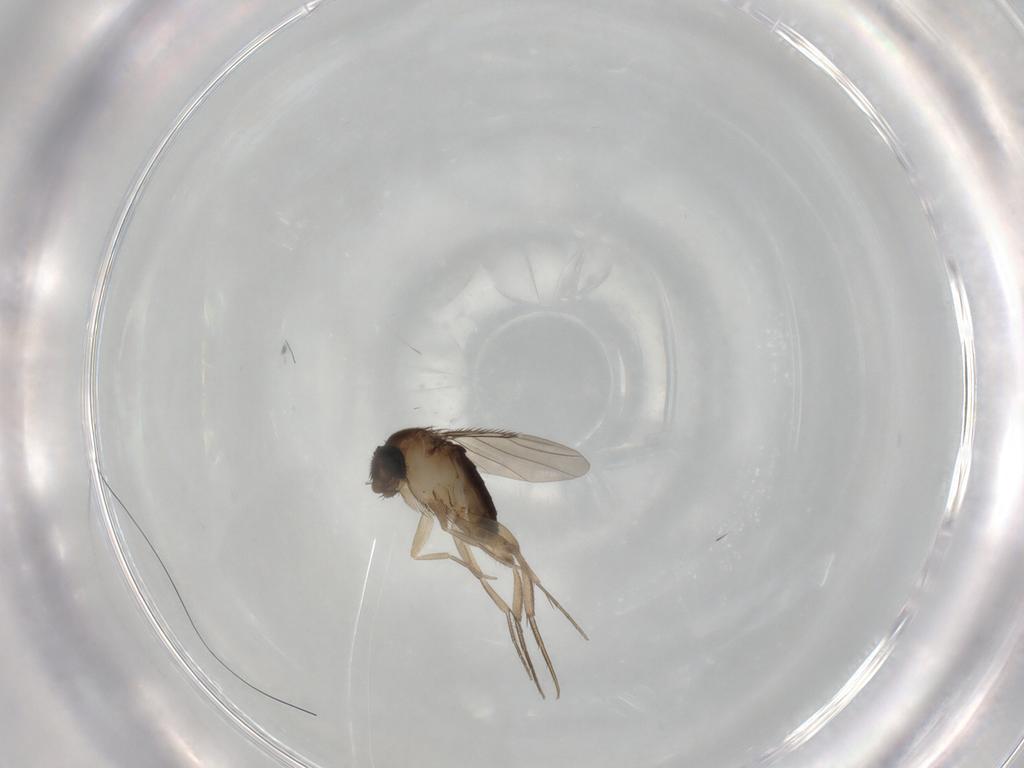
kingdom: Animalia
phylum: Arthropoda
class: Insecta
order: Diptera
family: Phoridae
